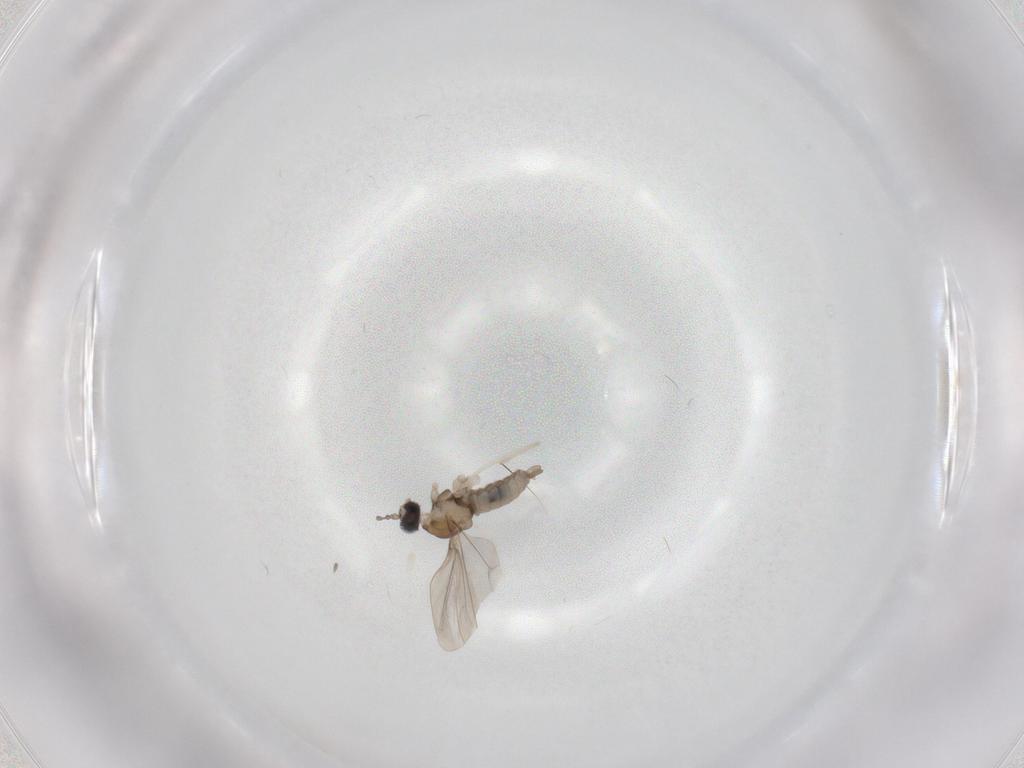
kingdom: Animalia
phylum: Arthropoda
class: Insecta
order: Diptera
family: Cecidomyiidae
